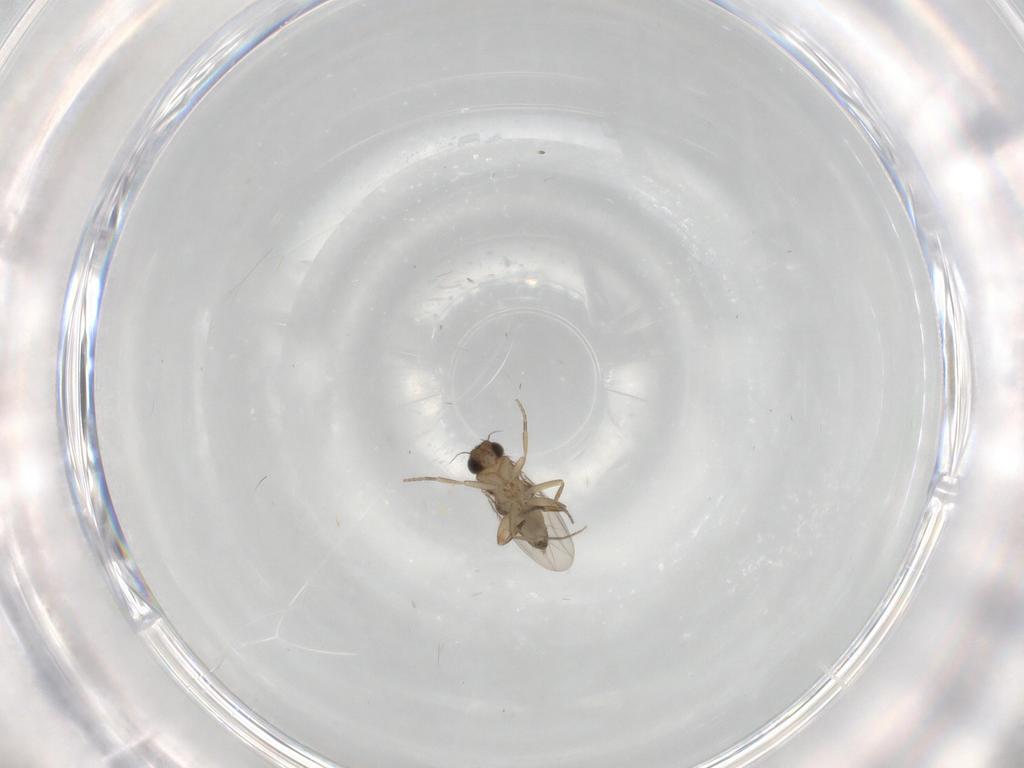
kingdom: Animalia
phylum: Arthropoda
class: Insecta
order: Diptera
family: Phoridae
